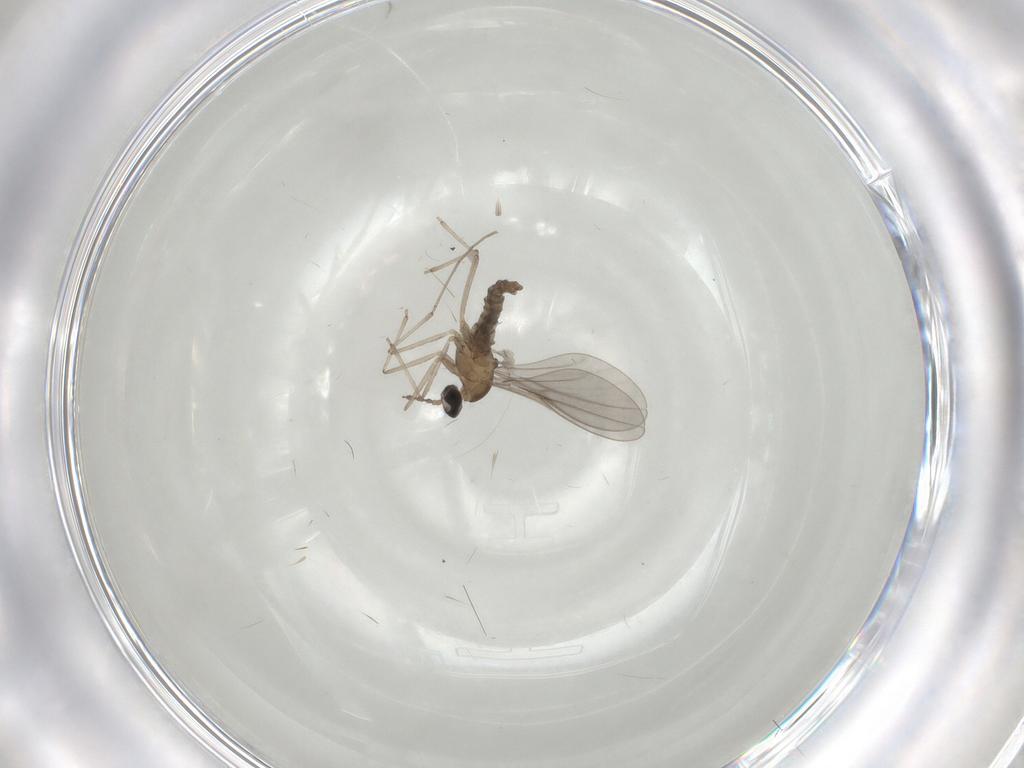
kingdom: Animalia
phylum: Arthropoda
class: Insecta
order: Diptera
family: Cecidomyiidae
